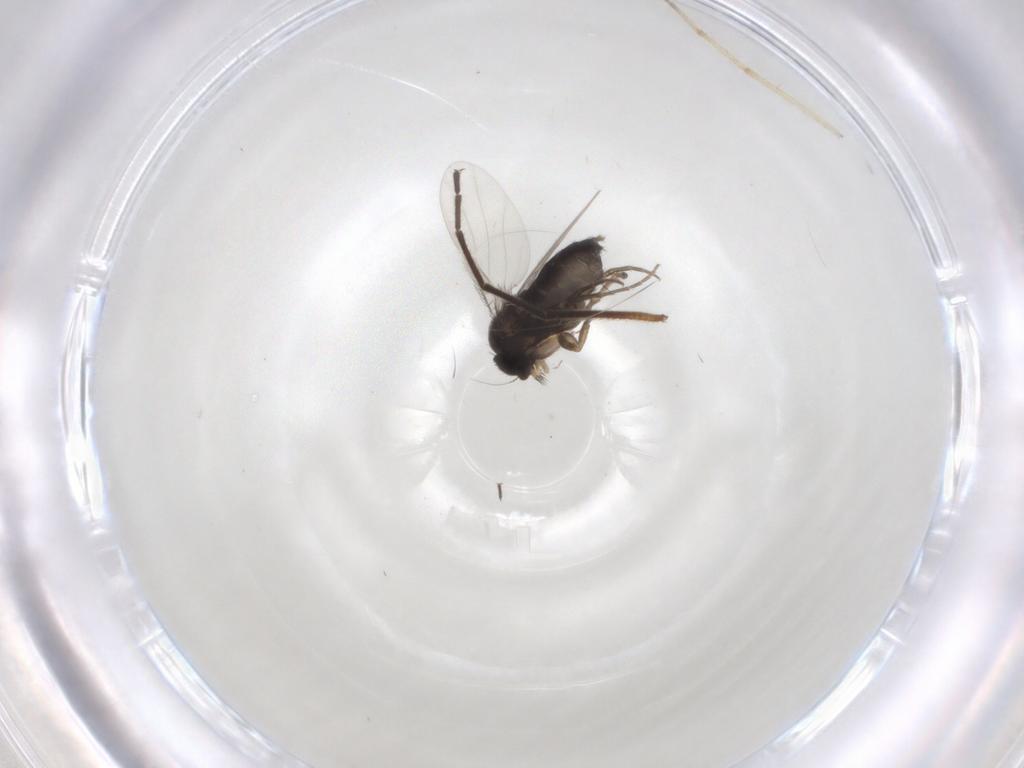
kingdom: Animalia
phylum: Arthropoda
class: Insecta
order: Diptera
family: Phoridae
